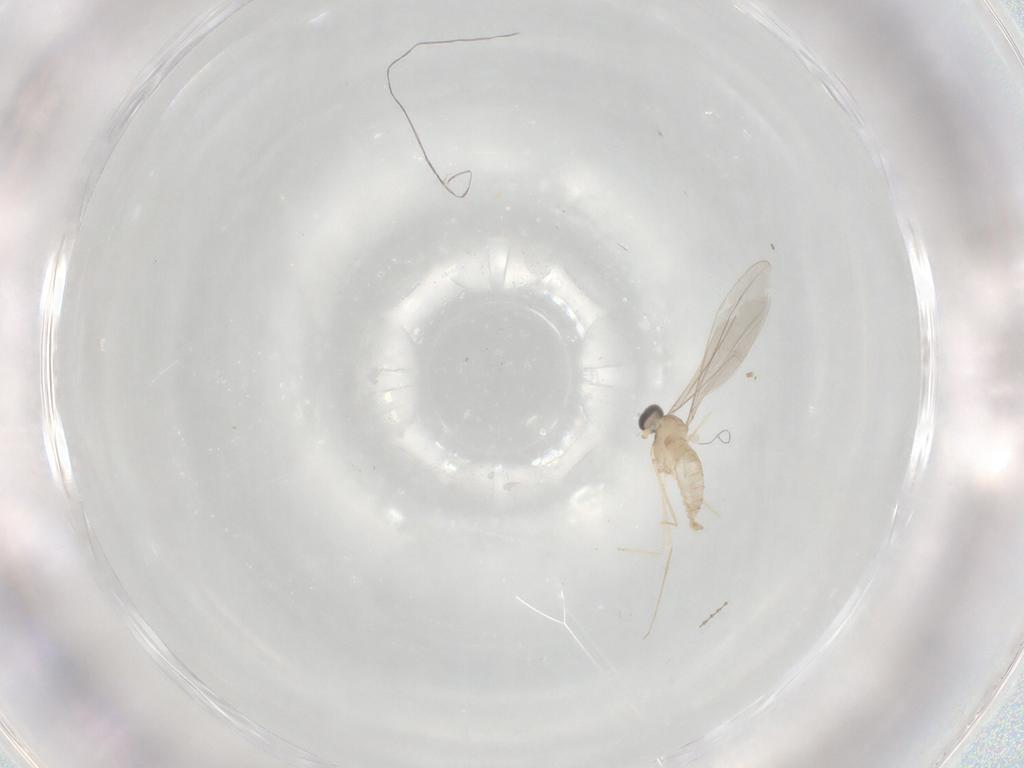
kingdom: Animalia
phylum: Arthropoda
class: Insecta
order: Diptera
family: Cecidomyiidae
